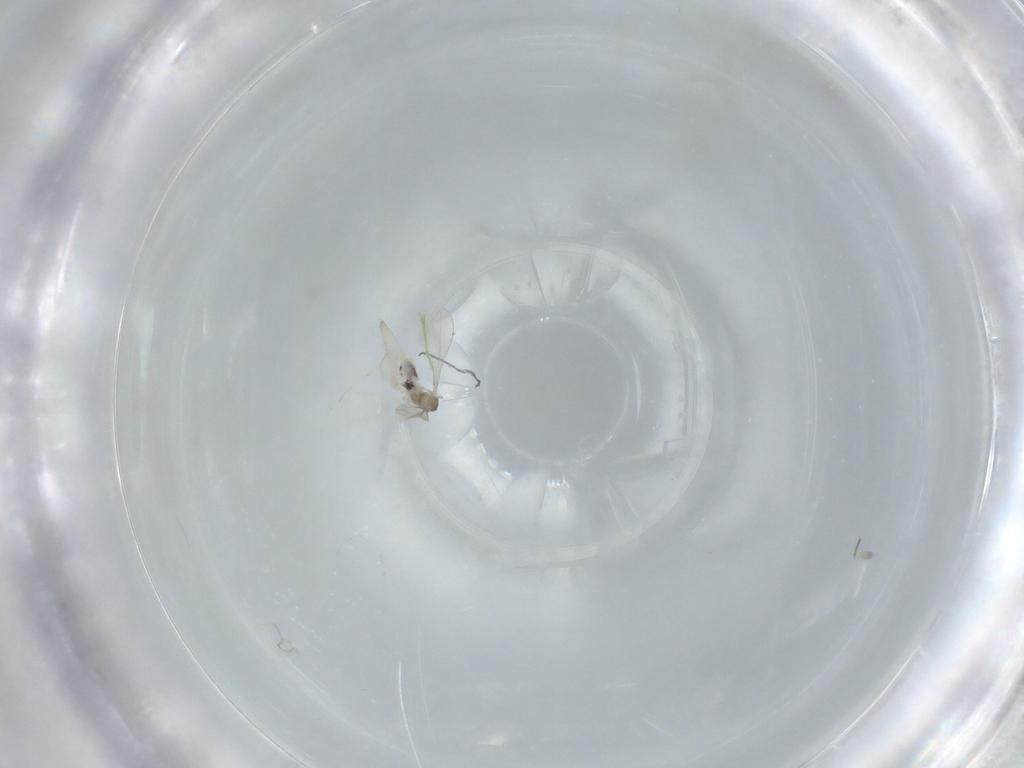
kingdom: Animalia
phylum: Arthropoda
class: Insecta
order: Diptera
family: Cecidomyiidae
